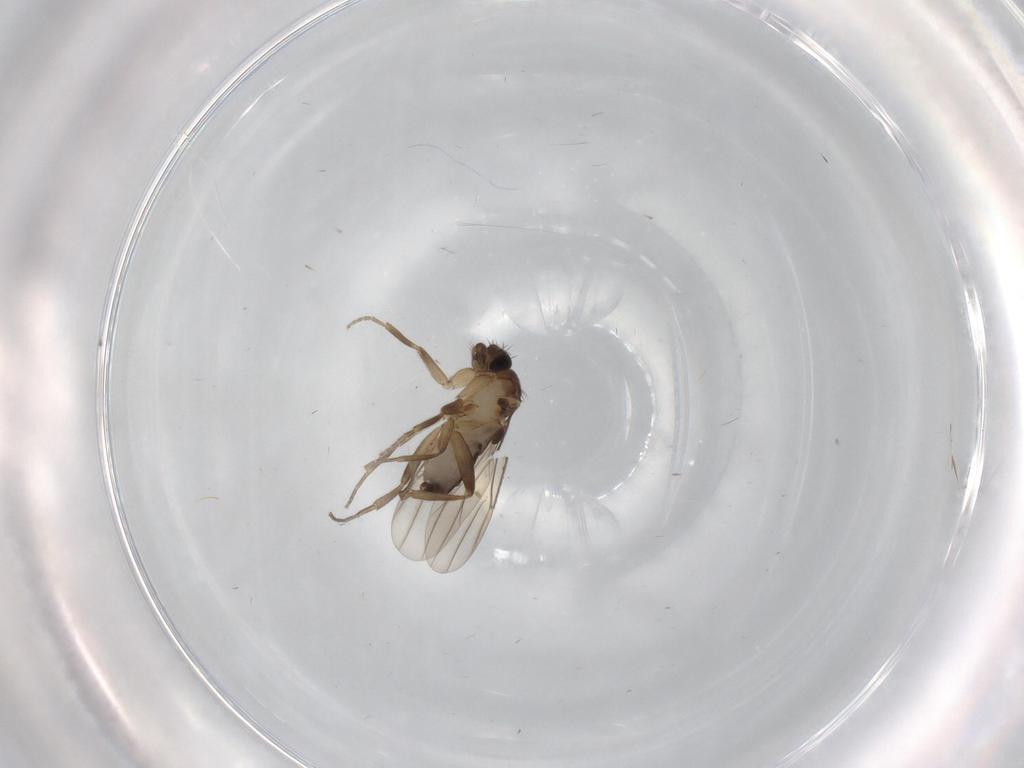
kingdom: Animalia
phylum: Arthropoda
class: Insecta
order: Diptera
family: Phoridae
